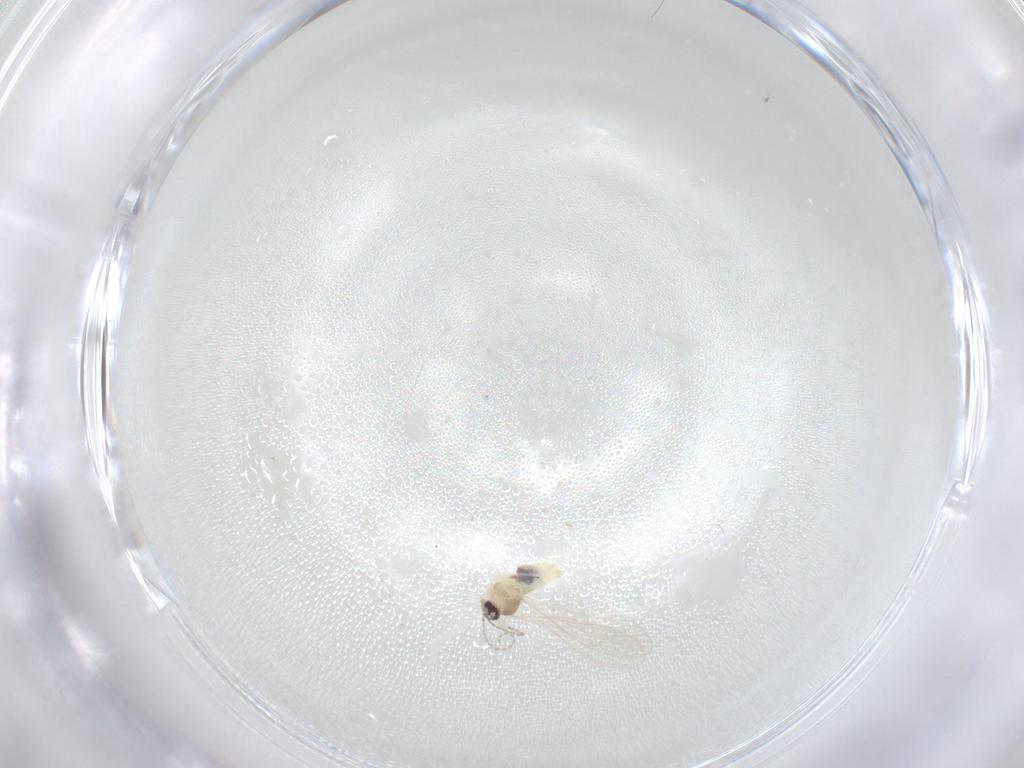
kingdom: Animalia
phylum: Arthropoda
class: Insecta
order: Diptera
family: Cecidomyiidae
